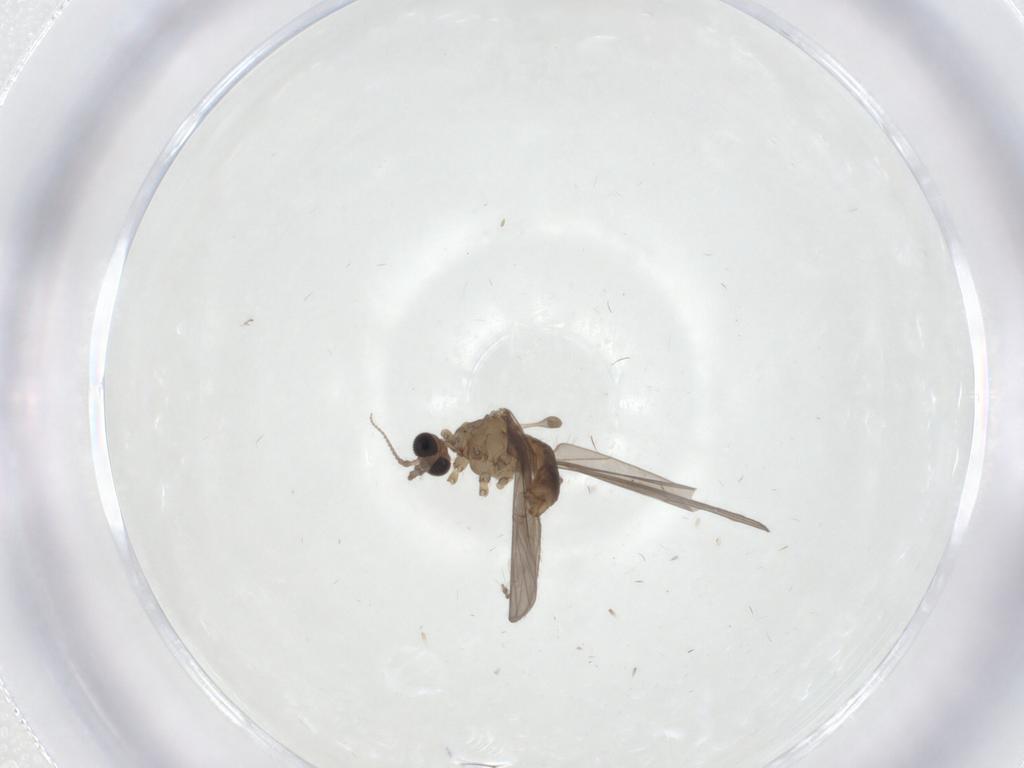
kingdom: Animalia
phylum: Arthropoda
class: Insecta
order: Diptera
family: Limoniidae
